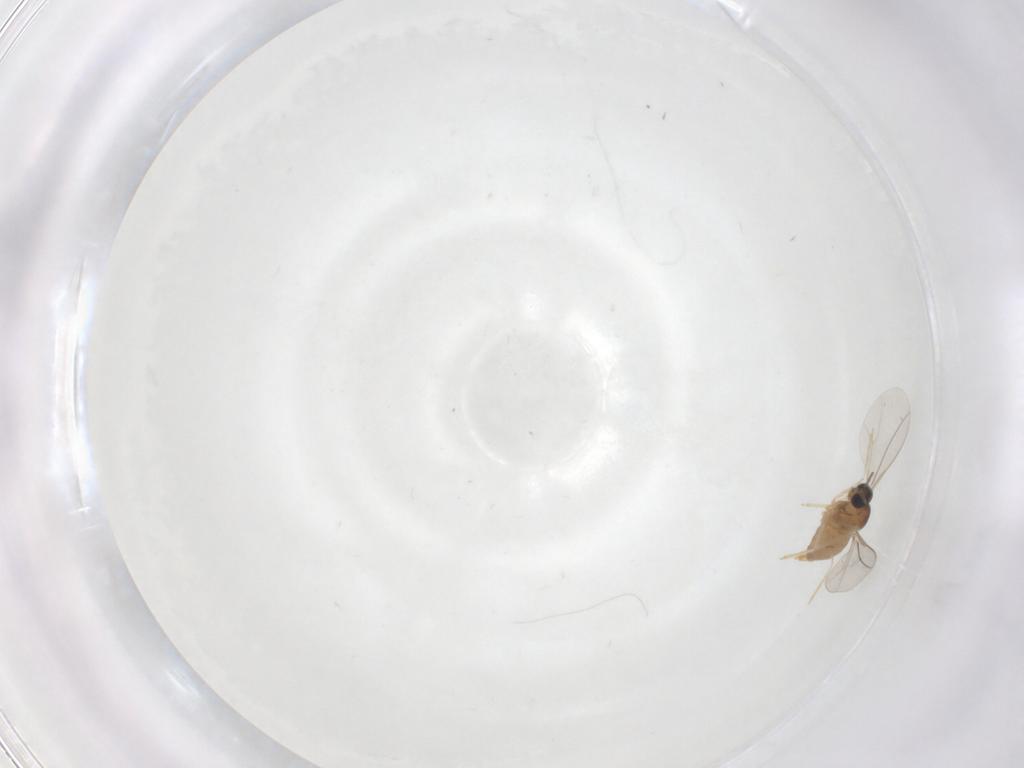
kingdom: Animalia
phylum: Arthropoda
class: Insecta
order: Diptera
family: Cecidomyiidae
